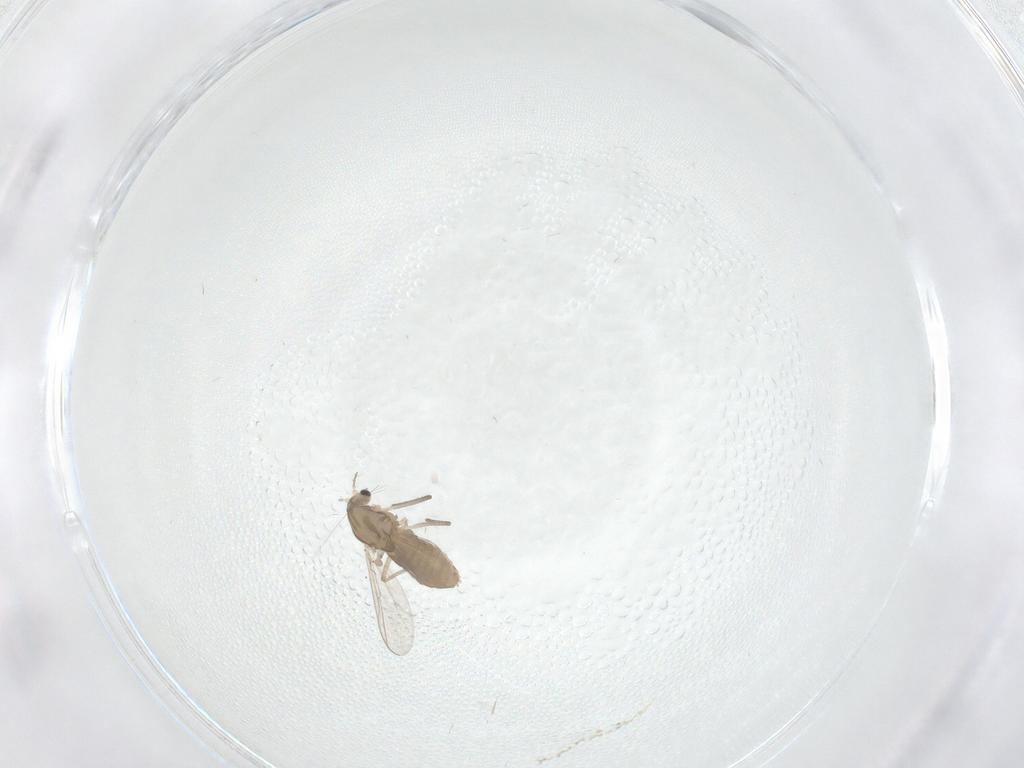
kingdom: Animalia
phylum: Arthropoda
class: Insecta
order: Diptera
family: Chironomidae
